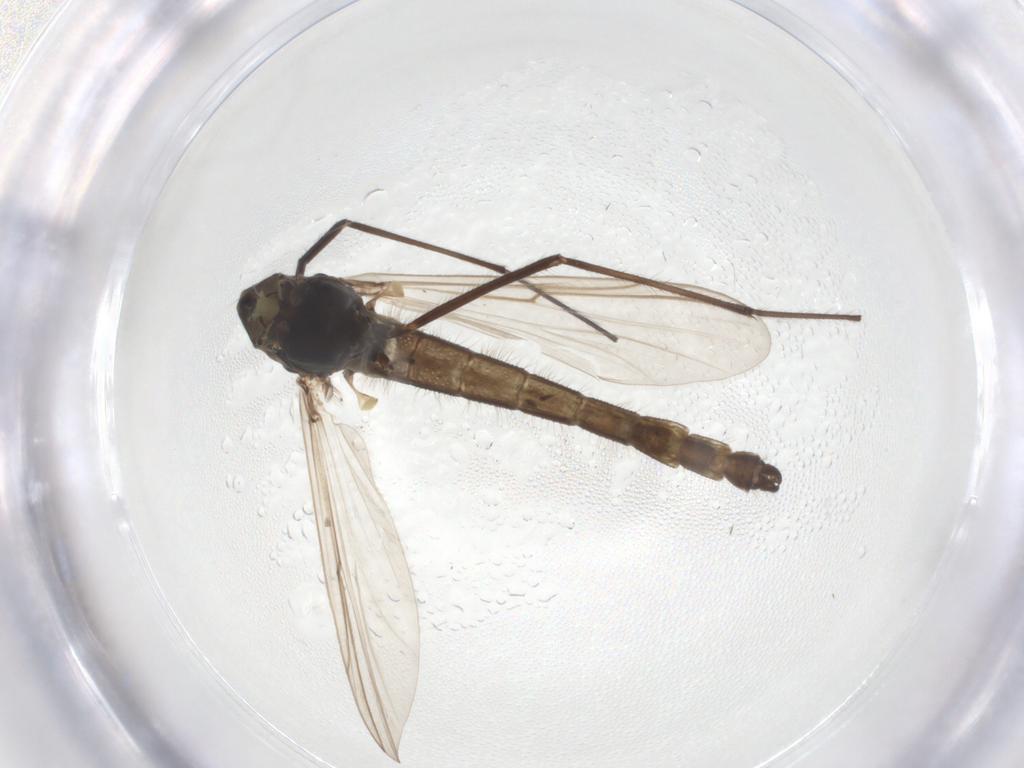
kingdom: Animalia
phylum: Arthropoda
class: Insecta
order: Diptera
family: Chironomidae
